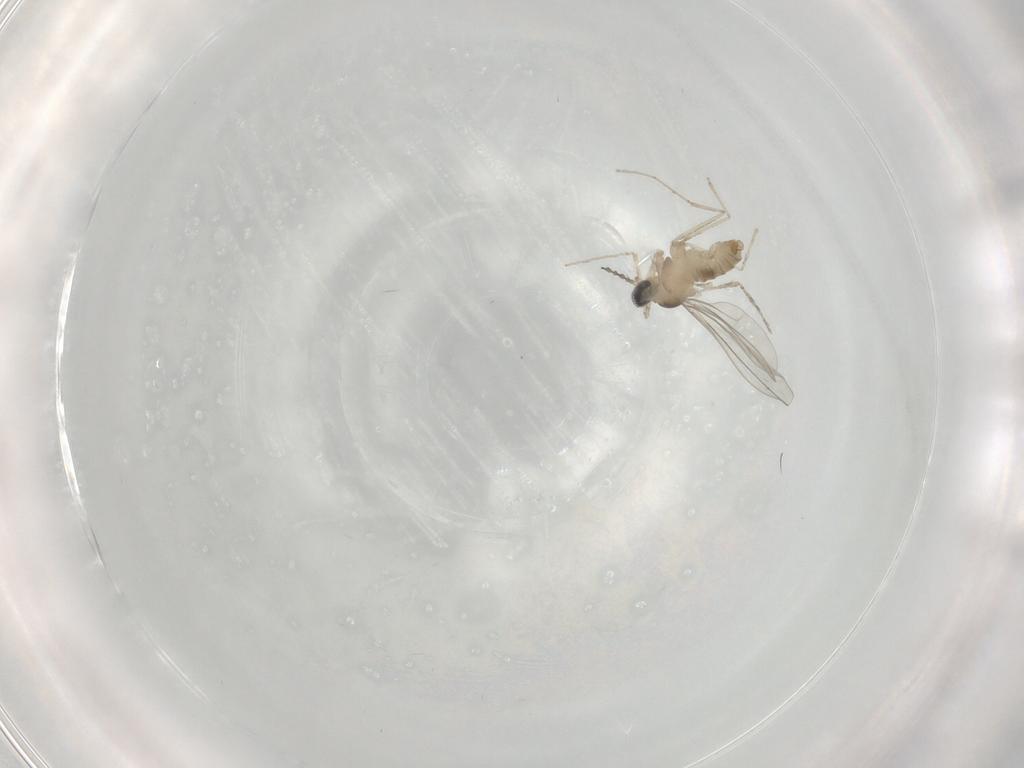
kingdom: Animalia
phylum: Arthropoda
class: Insecta
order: Diptera
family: Cecidomyiidae
